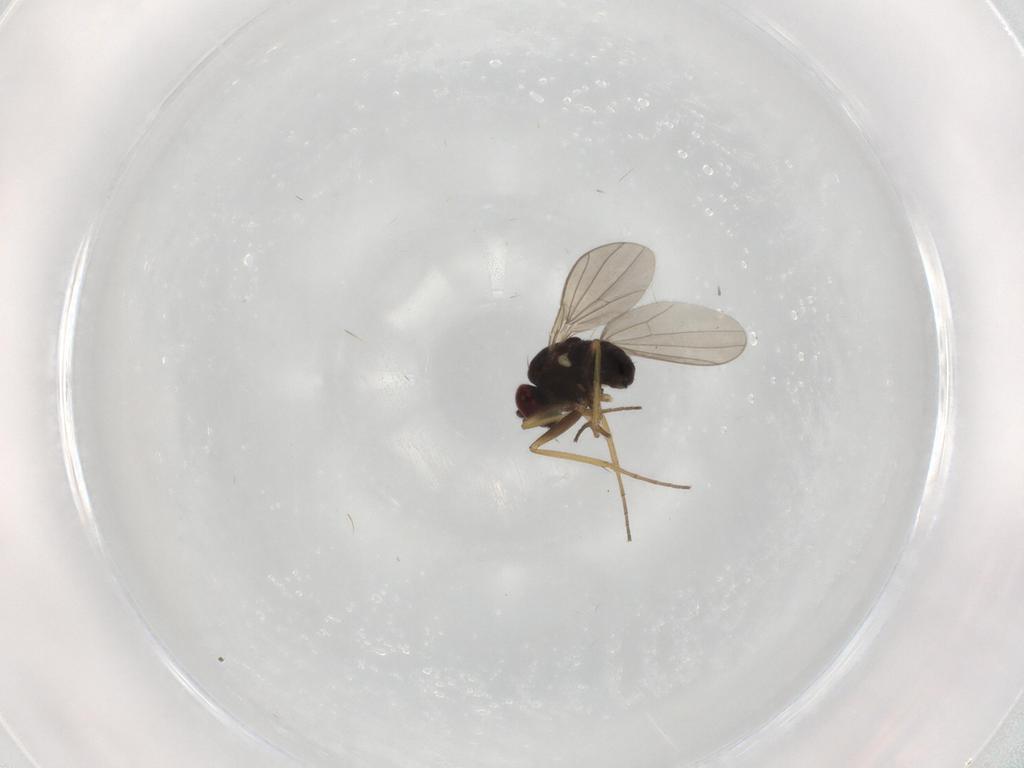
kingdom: Animalia
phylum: Arthropoda
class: Insecta
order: Diptera
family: Dolichopodidae
